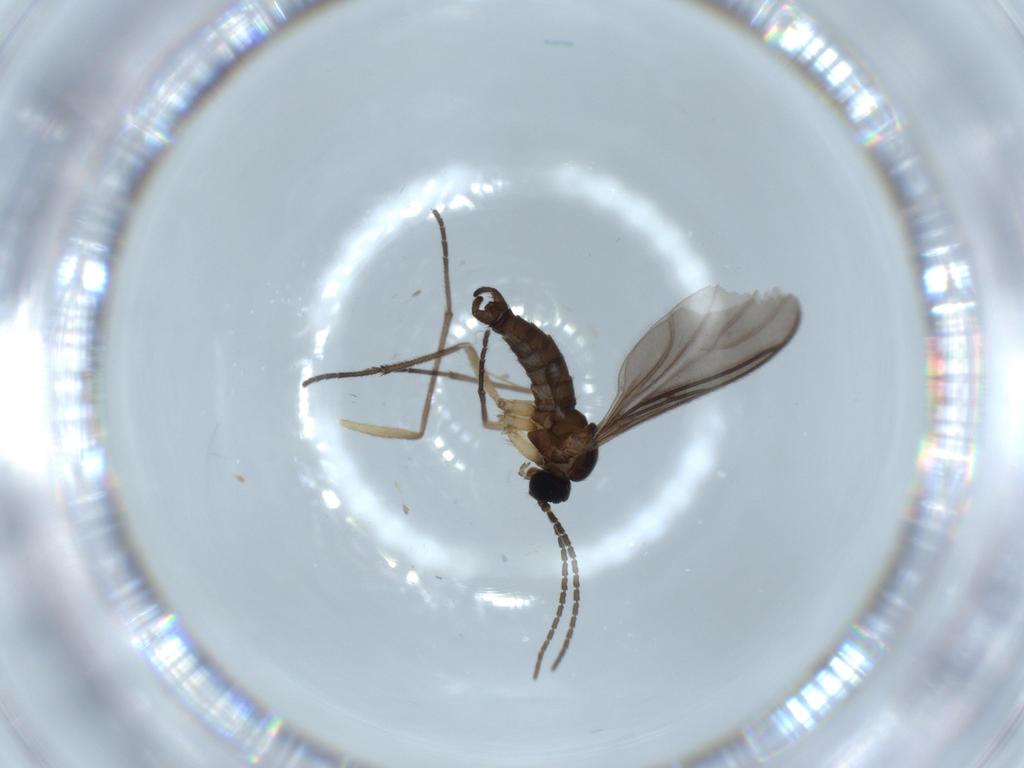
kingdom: Animalia
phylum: Arthropoda
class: Insecta
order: Diptera
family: Sciaridae
